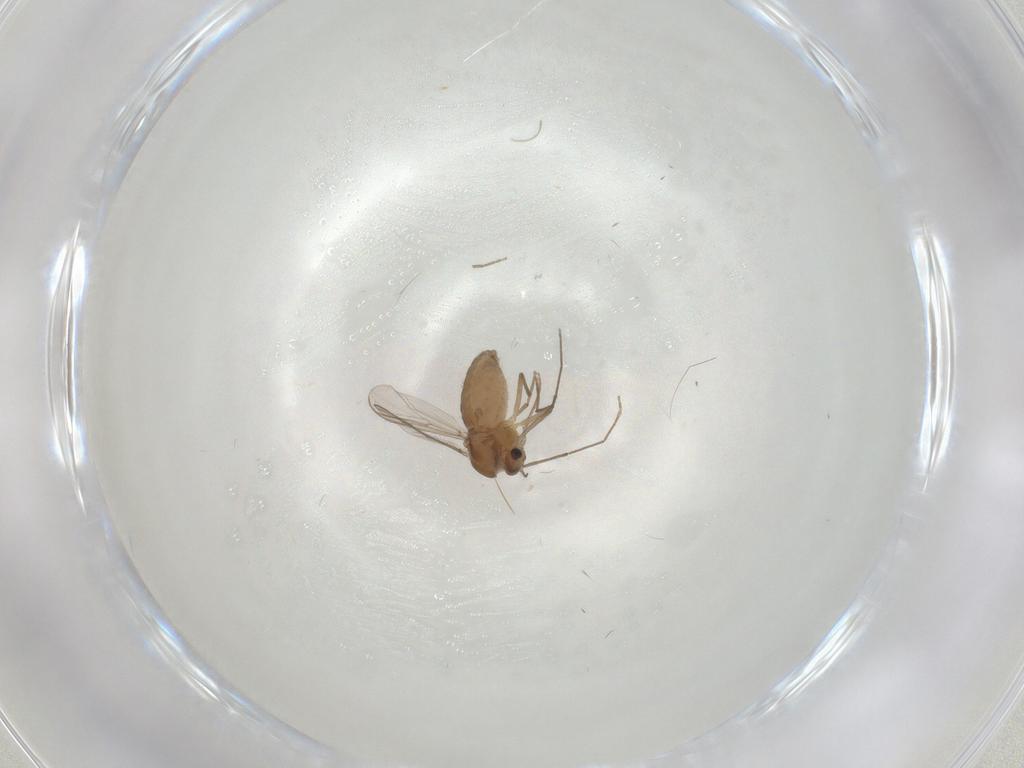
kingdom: Animalia
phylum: Arthropoda
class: Insecta
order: Diptera
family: Chironomidae
